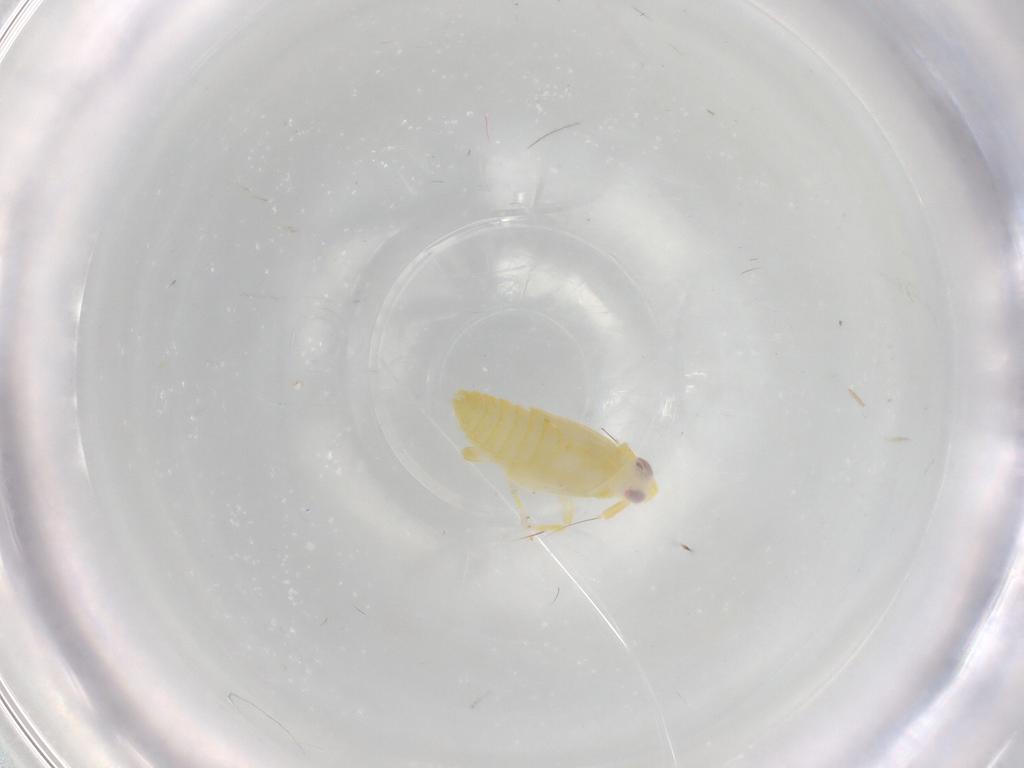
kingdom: Animalia
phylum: Arthropoda
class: Insecta
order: Hemiptera
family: Delphacidae
